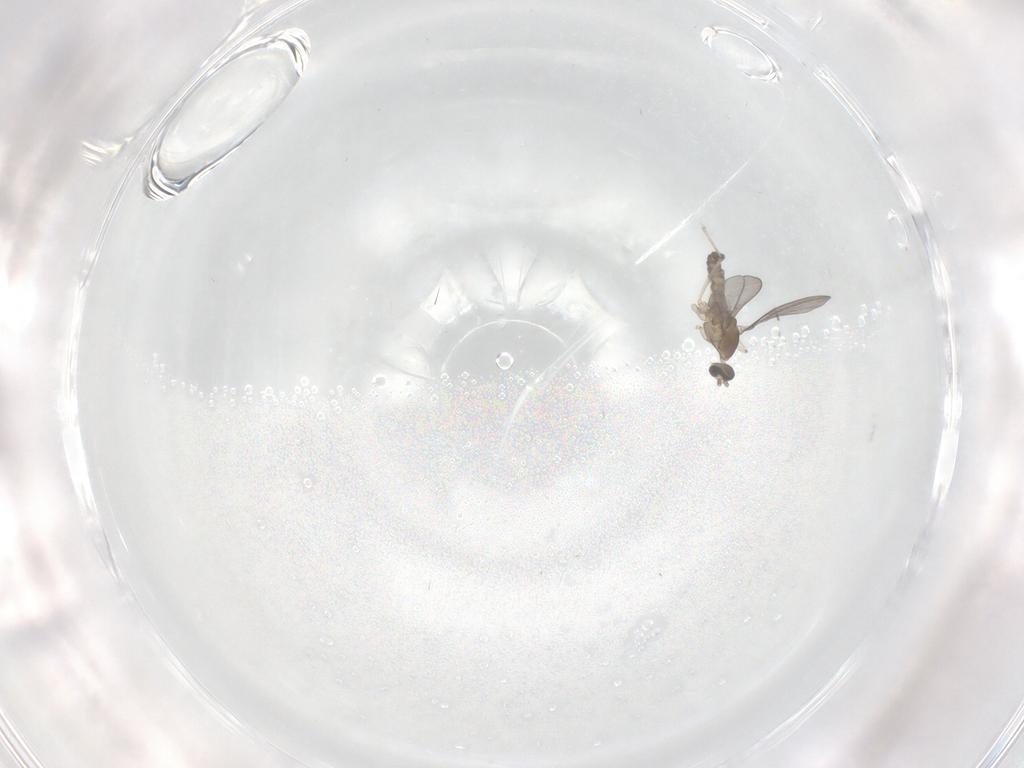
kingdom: Animalia
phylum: Arthropoda
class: Insecta
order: Diptera
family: Cecidomyiidae
